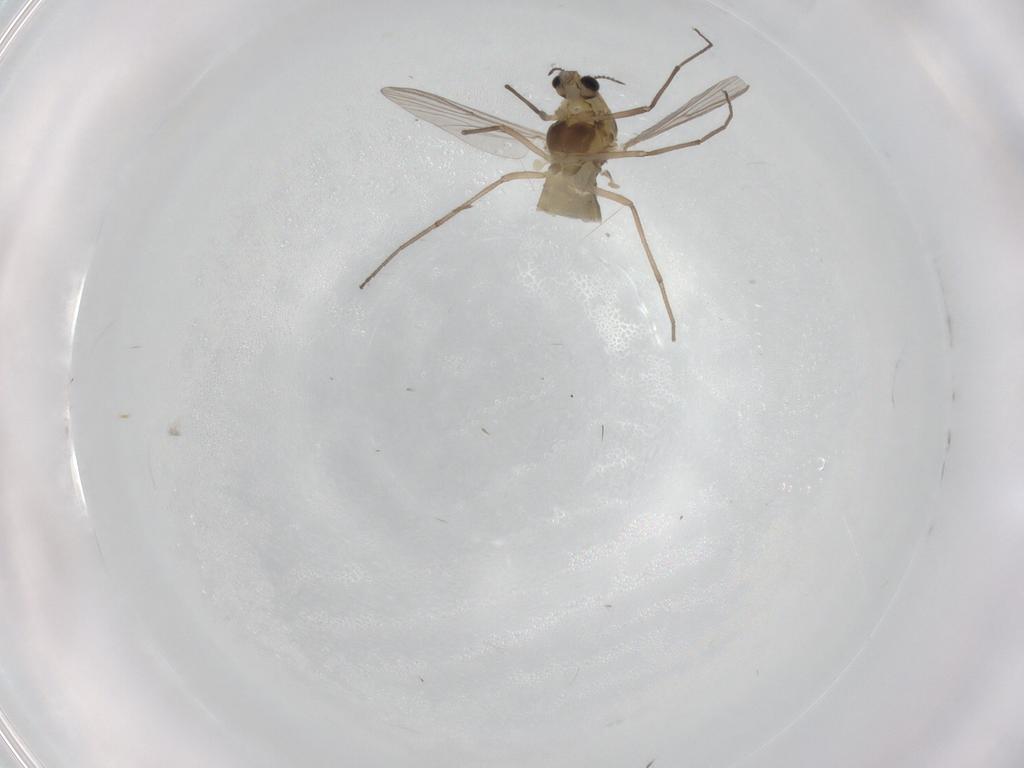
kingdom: Animalia
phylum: Arthropoda
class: Insecta
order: Diptera
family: Chironomidae
